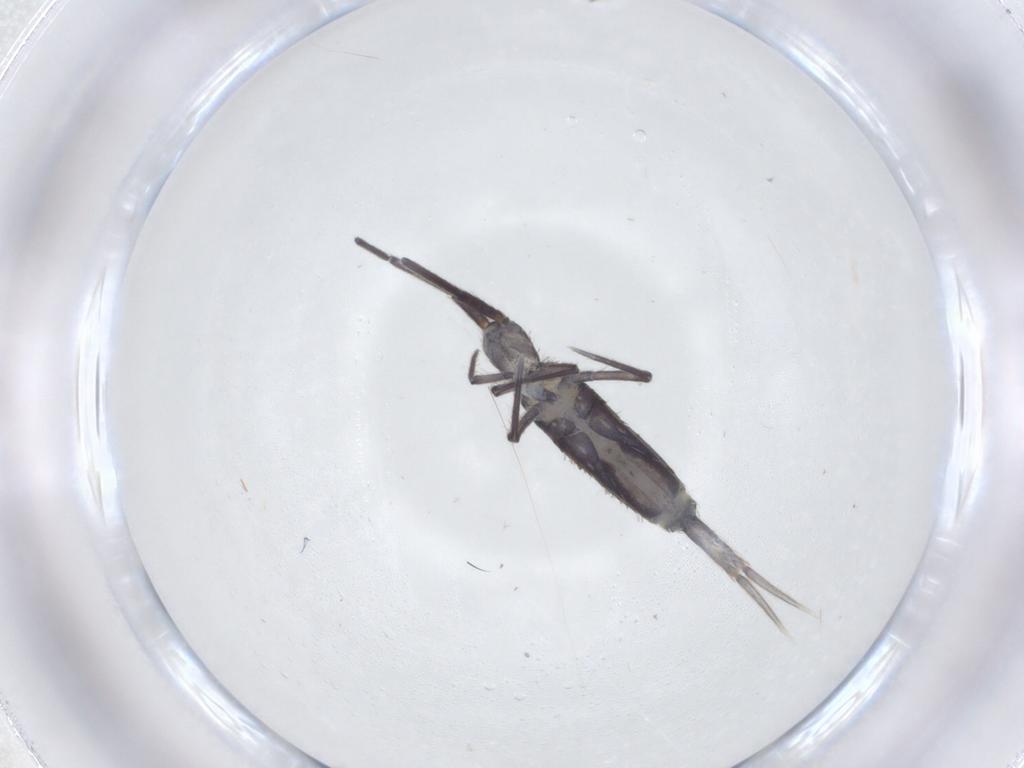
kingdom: Animalia
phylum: Arthropoda
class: Collembola
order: Entomobryomorpha
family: Entomobryidae
